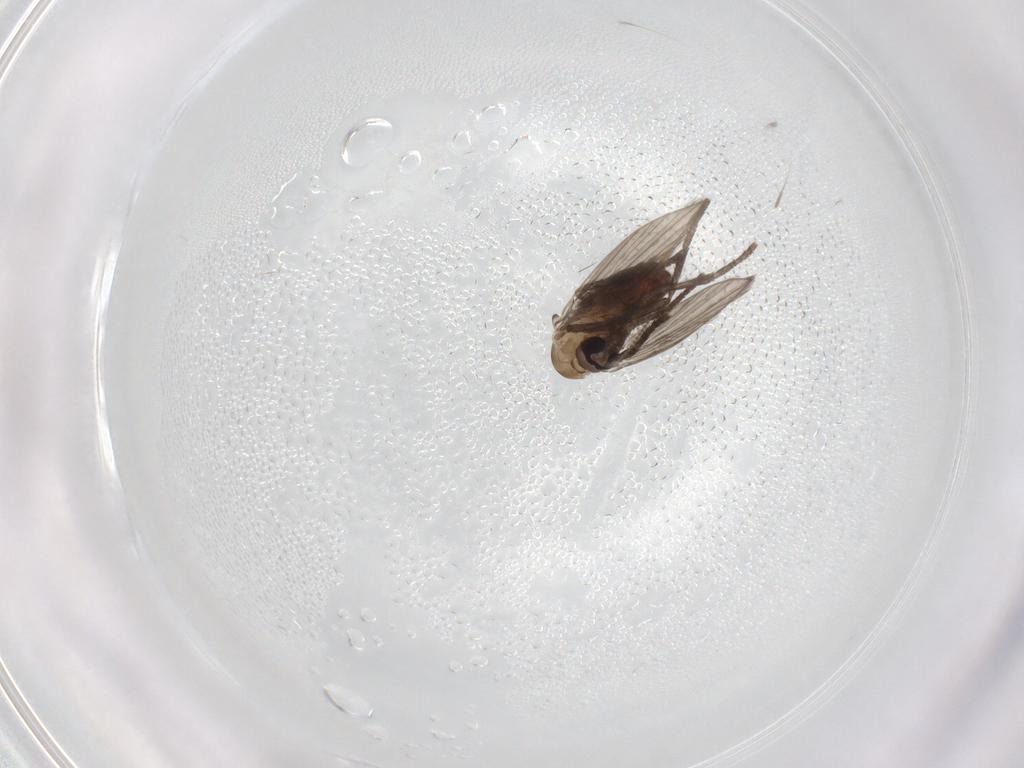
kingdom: Animalia
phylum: Arthropoda
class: Insecta
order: Diptera
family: Psychodidae
